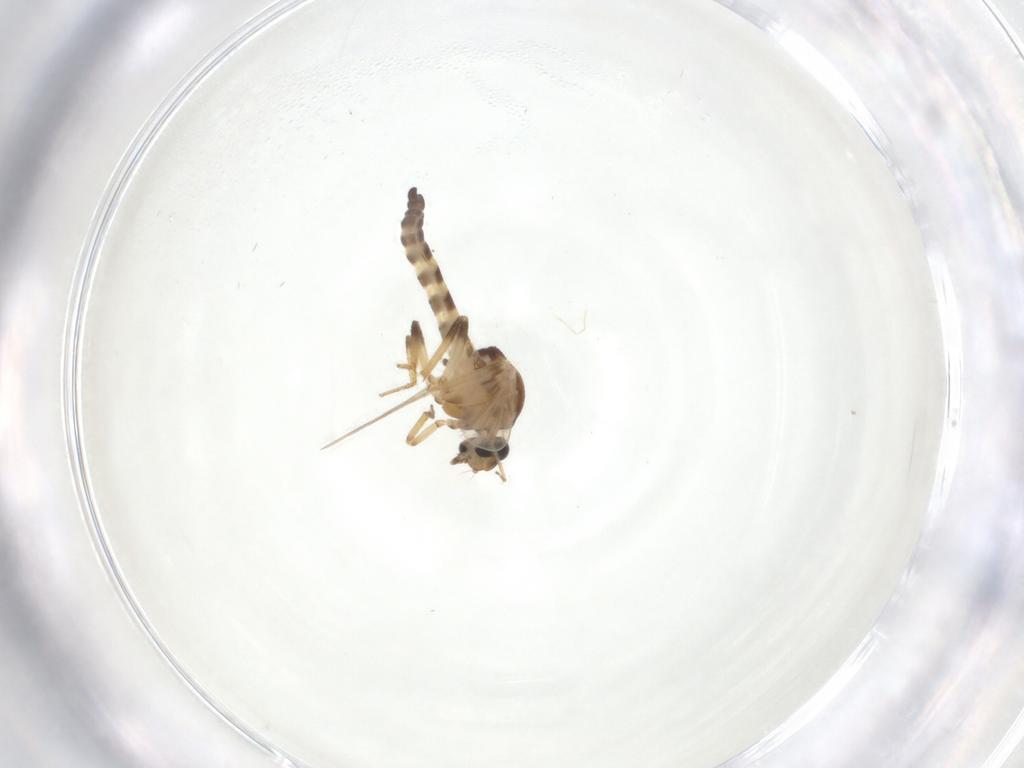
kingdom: Animalia
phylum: Arthropoda
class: Insecta
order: Diptera
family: Ceratopogonidae
